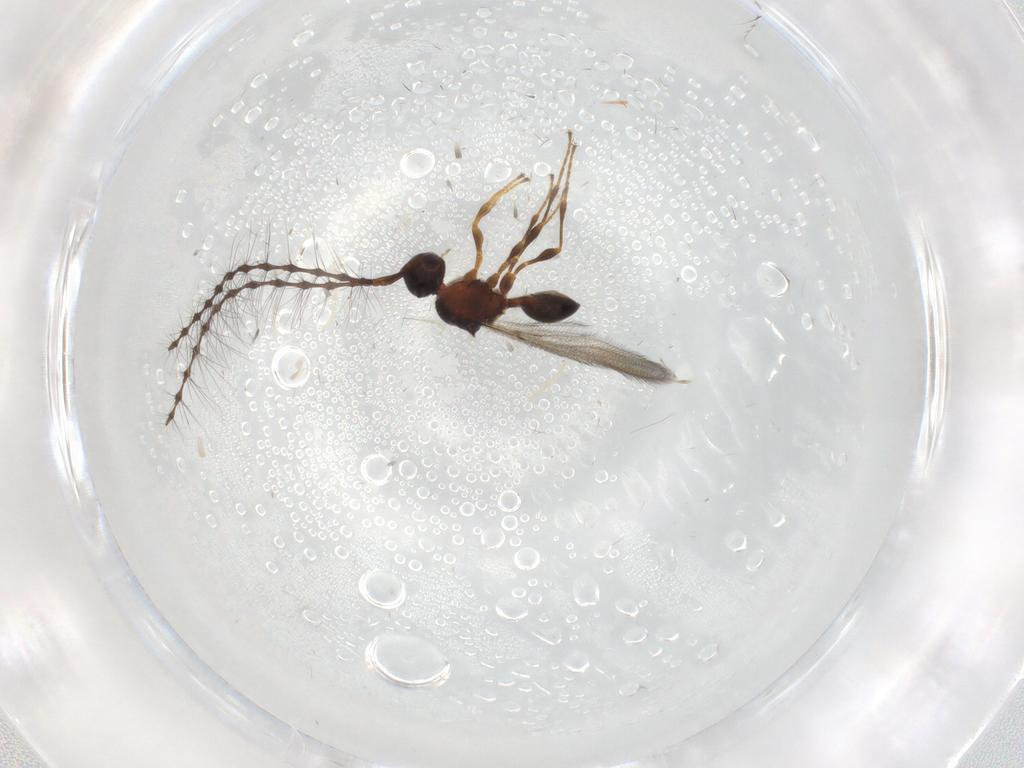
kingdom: Animalia
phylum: Arthropoda
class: Insecta
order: Hymenoptera
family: Diapriidae
